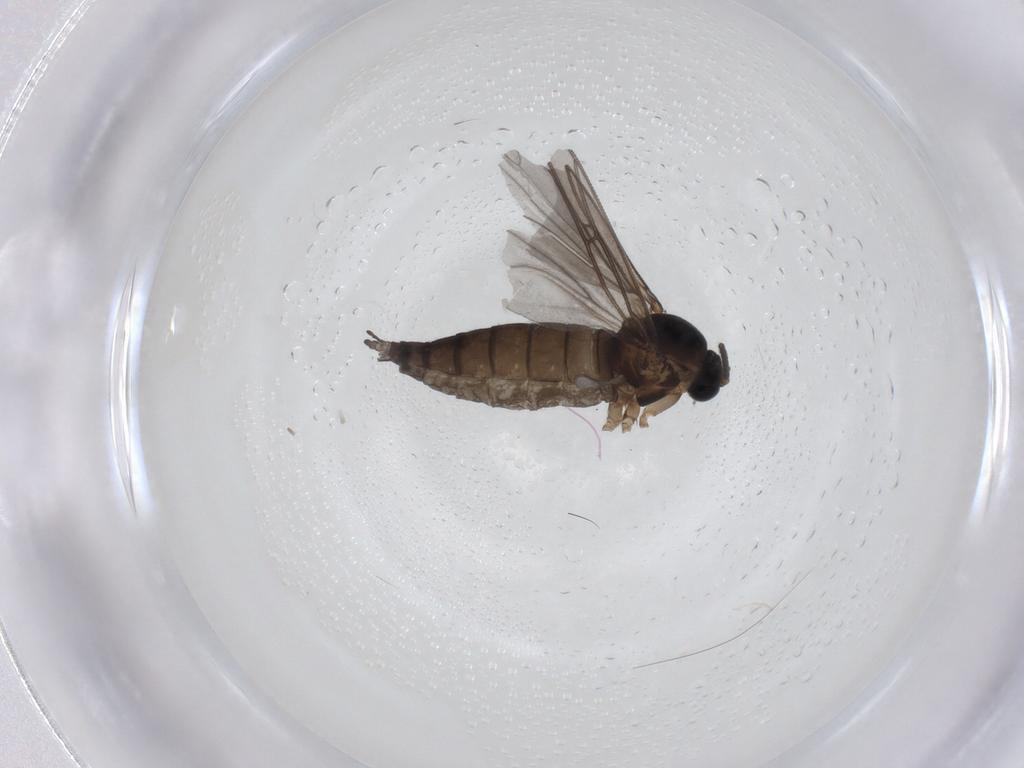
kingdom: Animalia
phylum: Arthropoda
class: Insecta
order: Diptera
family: Sciaridae
